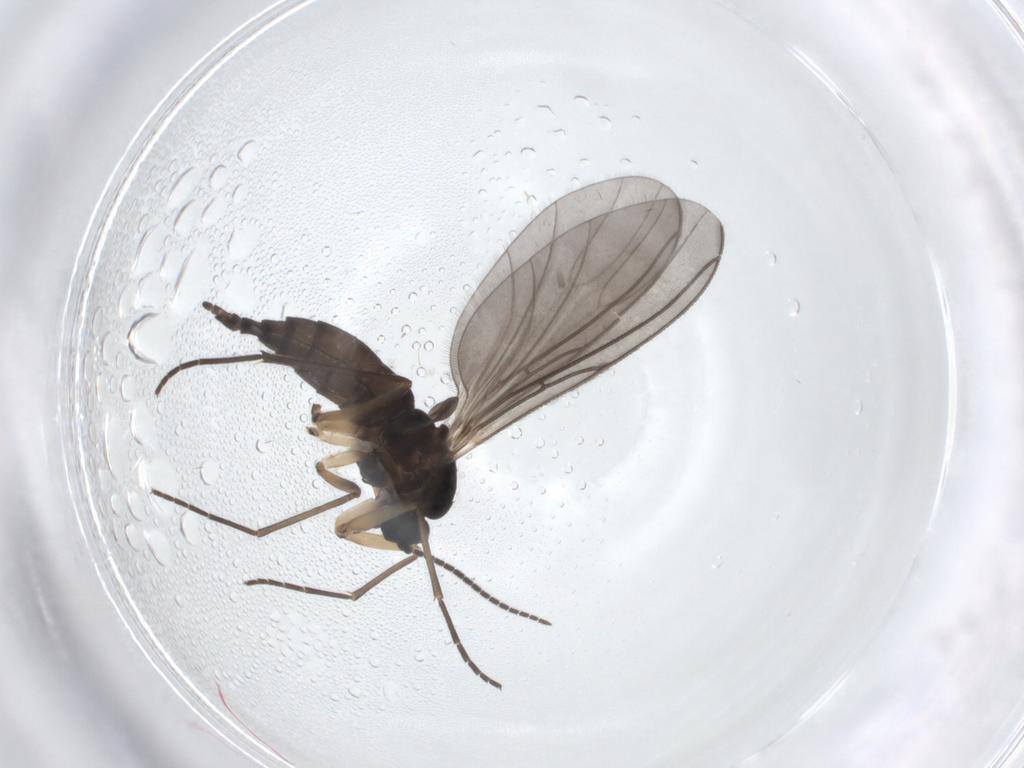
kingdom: Animalia
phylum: Arthropoda
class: Insecta
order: Diptera
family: Sciaridae
